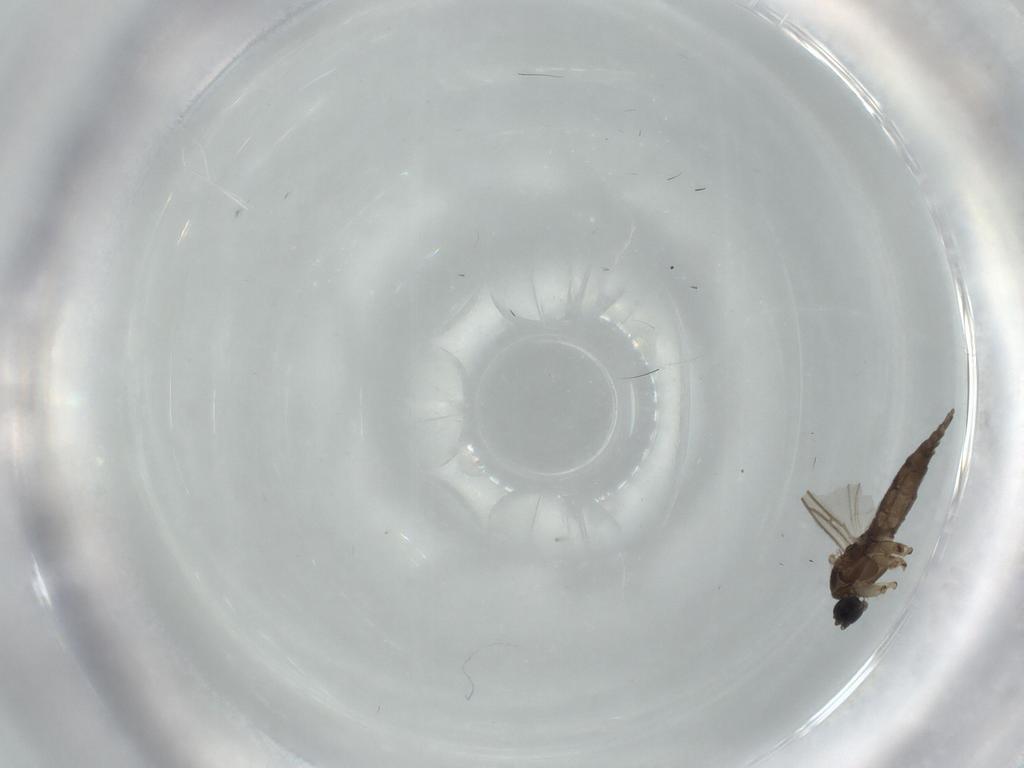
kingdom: Animalia
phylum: Arthropoda
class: Insecta
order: Diptera
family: Sciaridae
